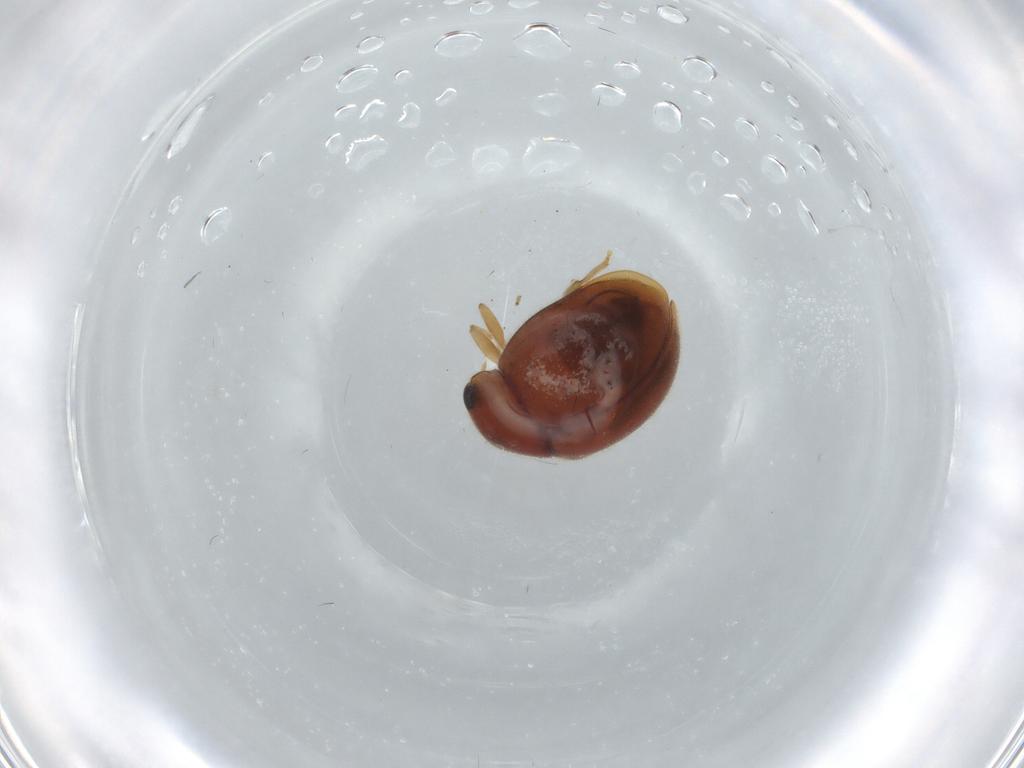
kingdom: Animalia
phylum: Arthropoda
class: Insecta
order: Coleoptera
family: Coccinellidae
